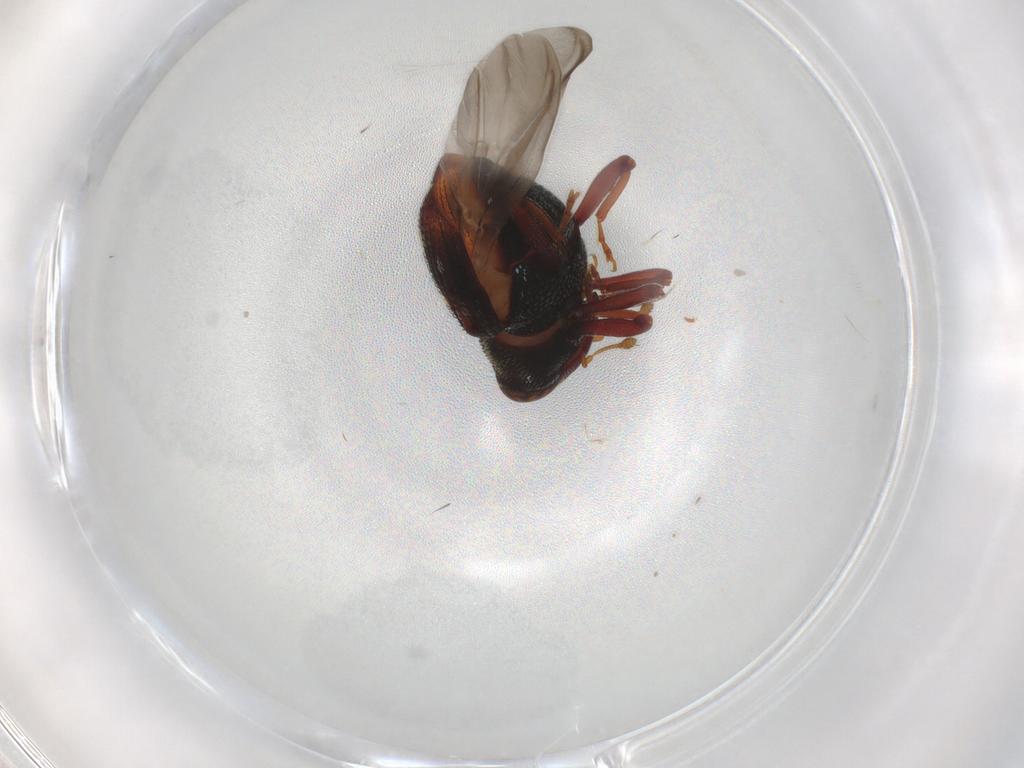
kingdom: Animalia
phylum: Arthropoda
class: Insecta
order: Coleoptera
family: Curculionidae
